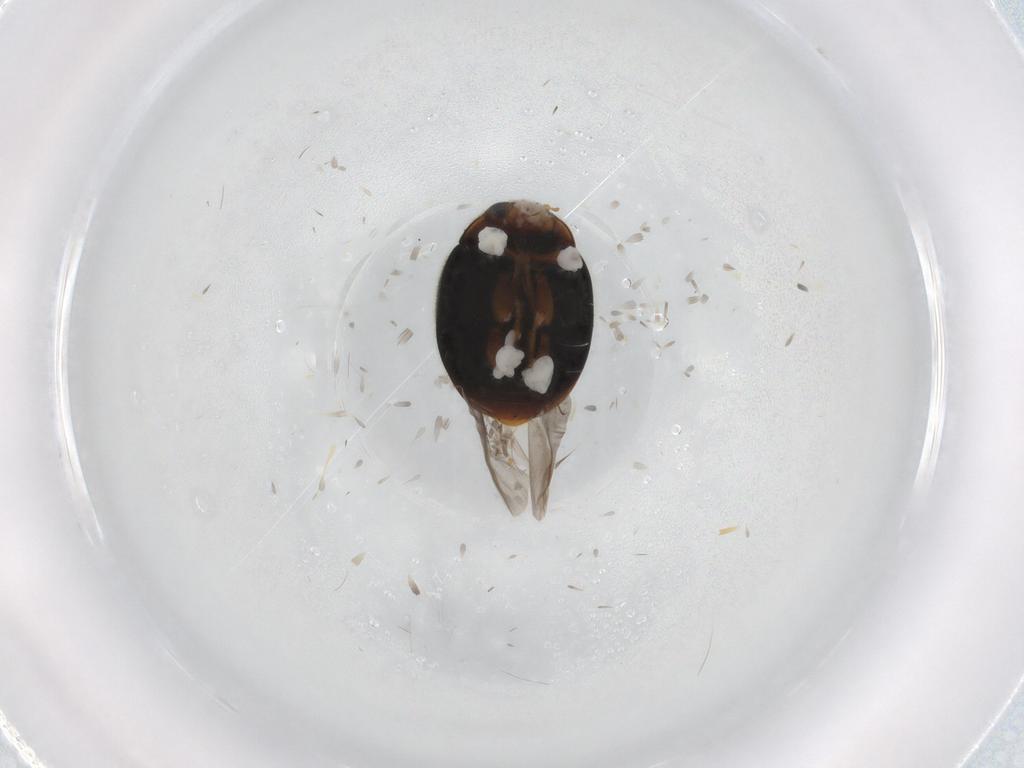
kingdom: Animalia
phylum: Arthropoda
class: Insecta
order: Coleoptera
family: Coccinellidae
